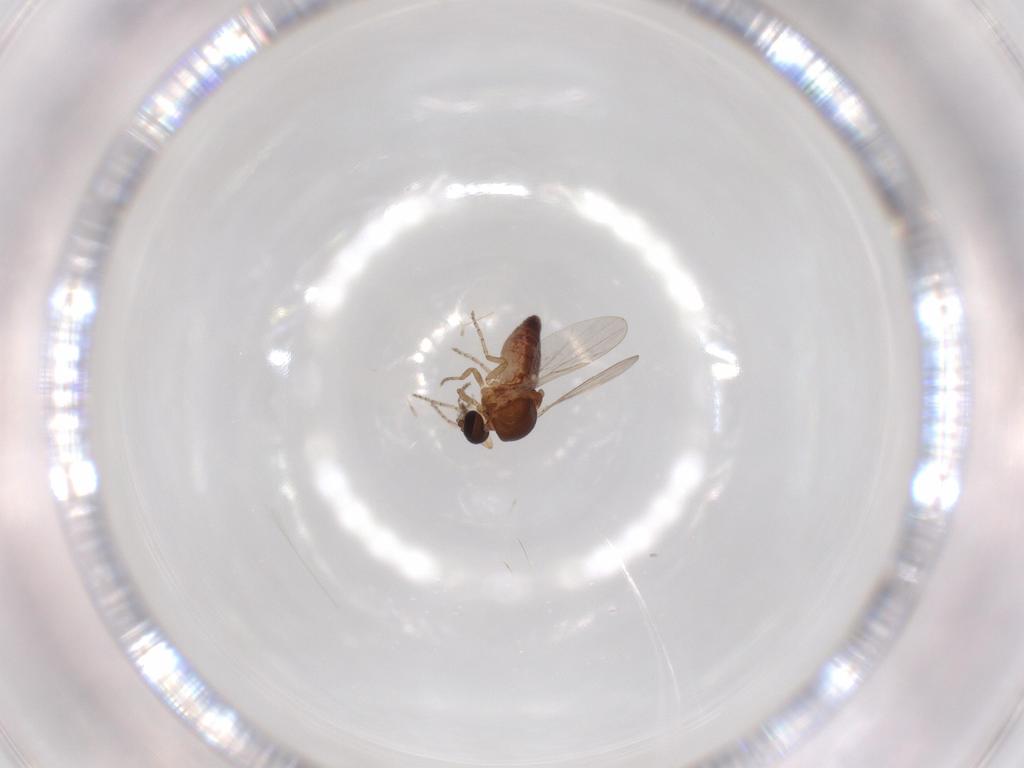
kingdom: Animalia
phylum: Arthropoda
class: Insecta
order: Diptera
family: Ceratopogonidae
